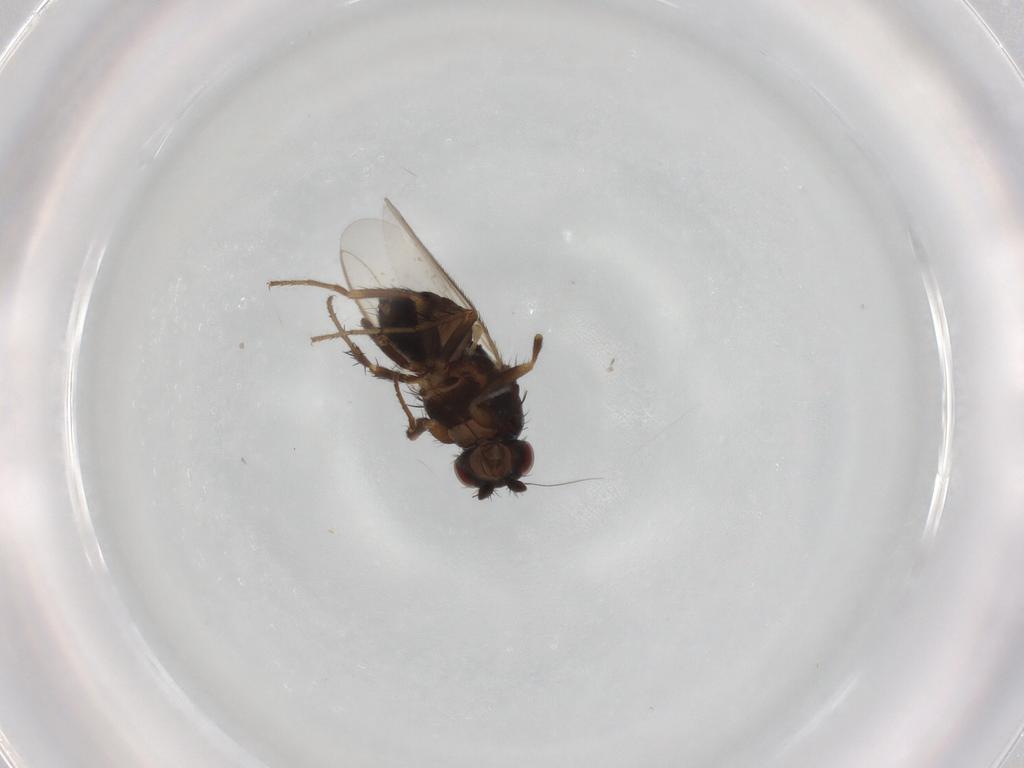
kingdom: Animalia
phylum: Arthropoda
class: Insecta
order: Diptera
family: Sphaeroceridae
